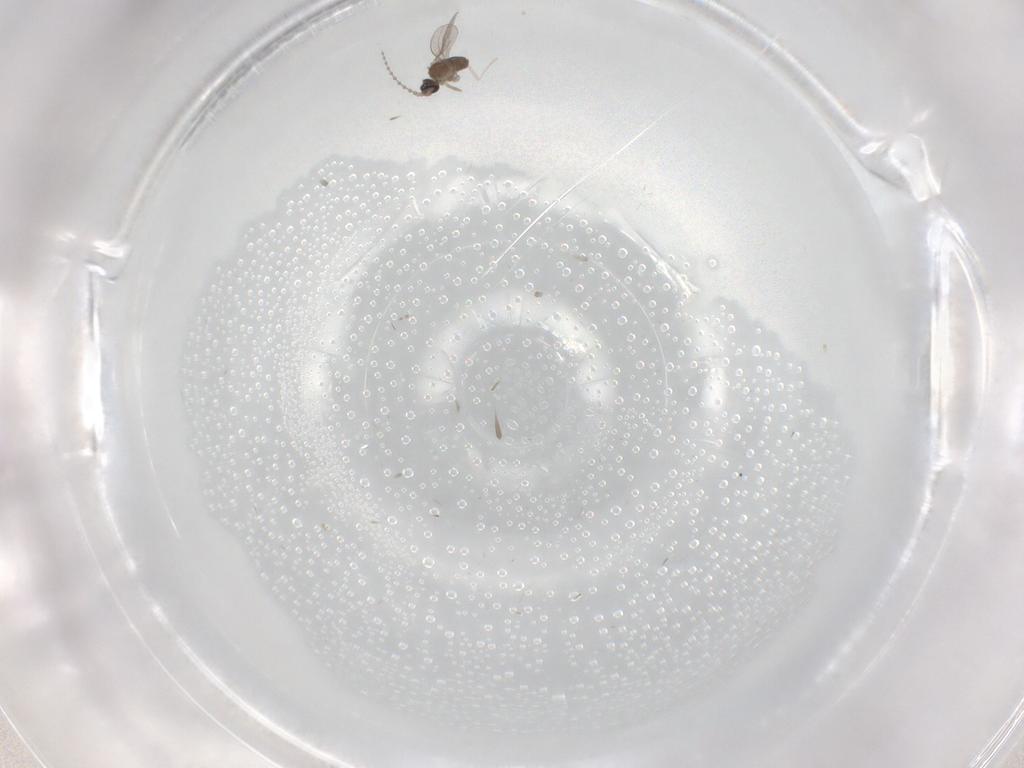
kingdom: Animalia
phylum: Arthropoda
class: Insecta
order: Diptera
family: Cecidomyiidae
